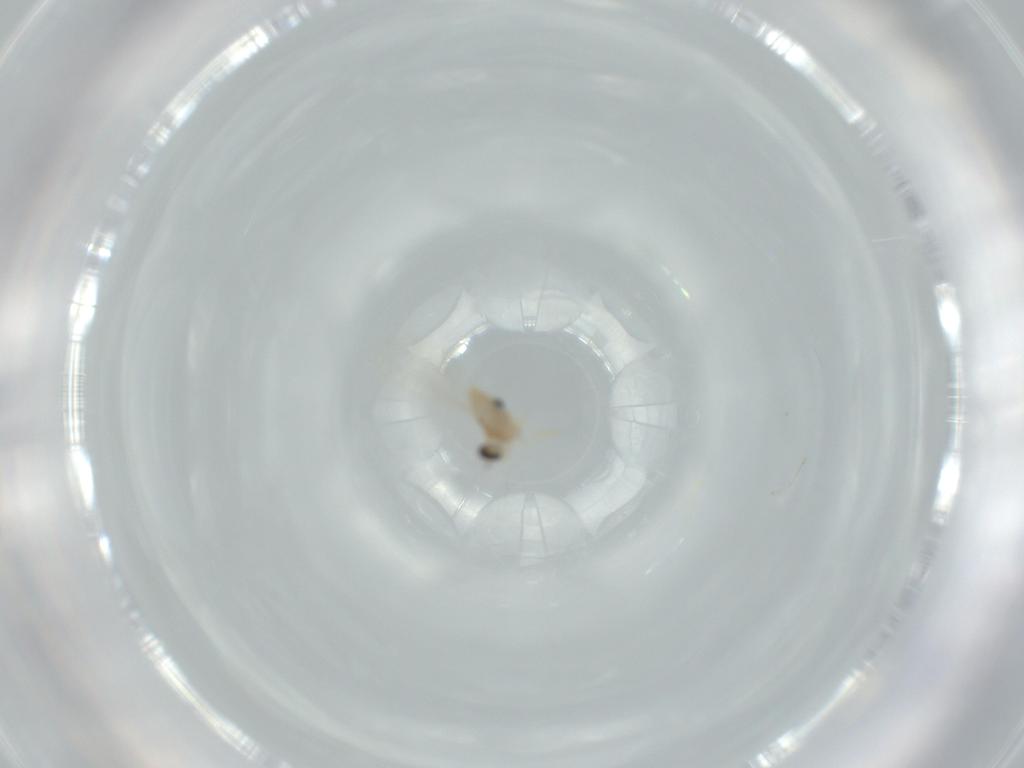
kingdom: Animalia
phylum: Arthropoda
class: Insecta
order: Diptera
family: Cecidomyiidae
